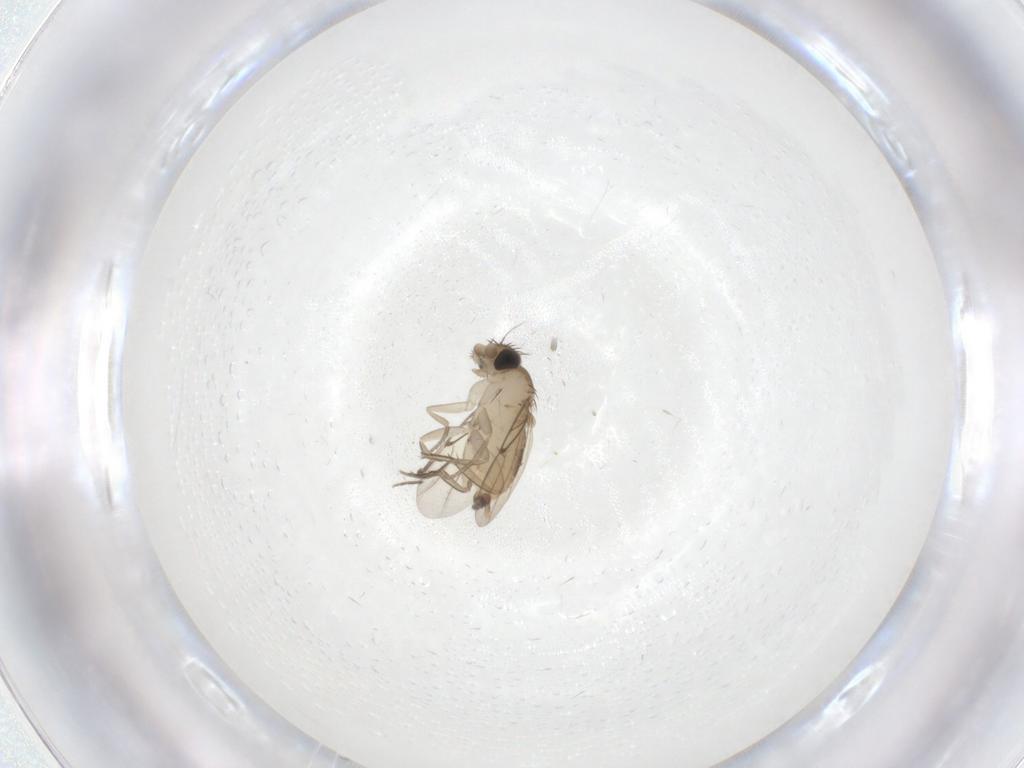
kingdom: Animalia
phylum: Arthropoda
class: Insecta
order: Diptera
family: Phoridae
